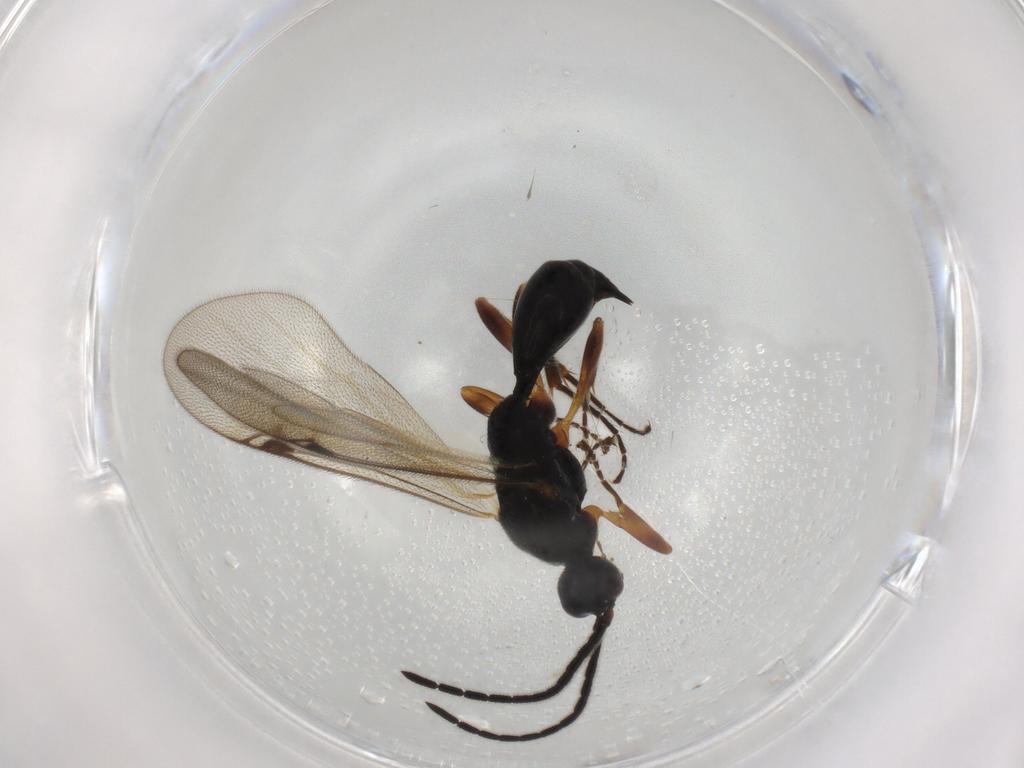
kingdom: Animalia
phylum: Arthropoda
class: Insecta
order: Hymenoptera
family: Proctotrupidae
